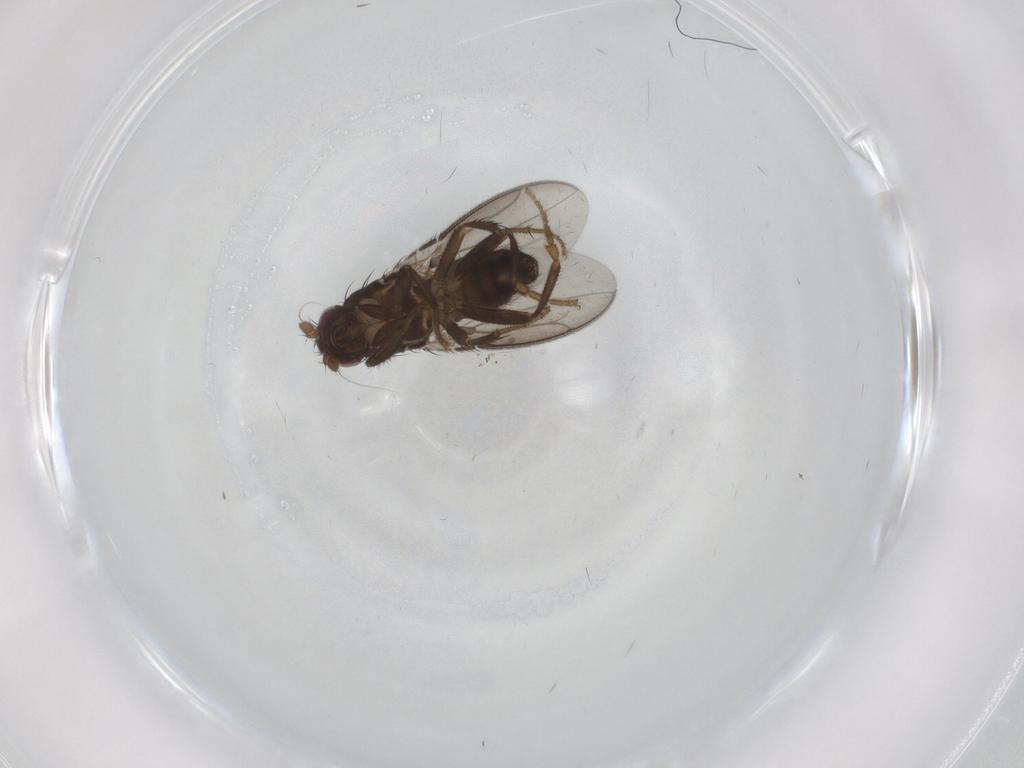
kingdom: Animalia
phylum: Arthropoda
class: Insecta
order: Diptera
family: Sphaeroceridae
